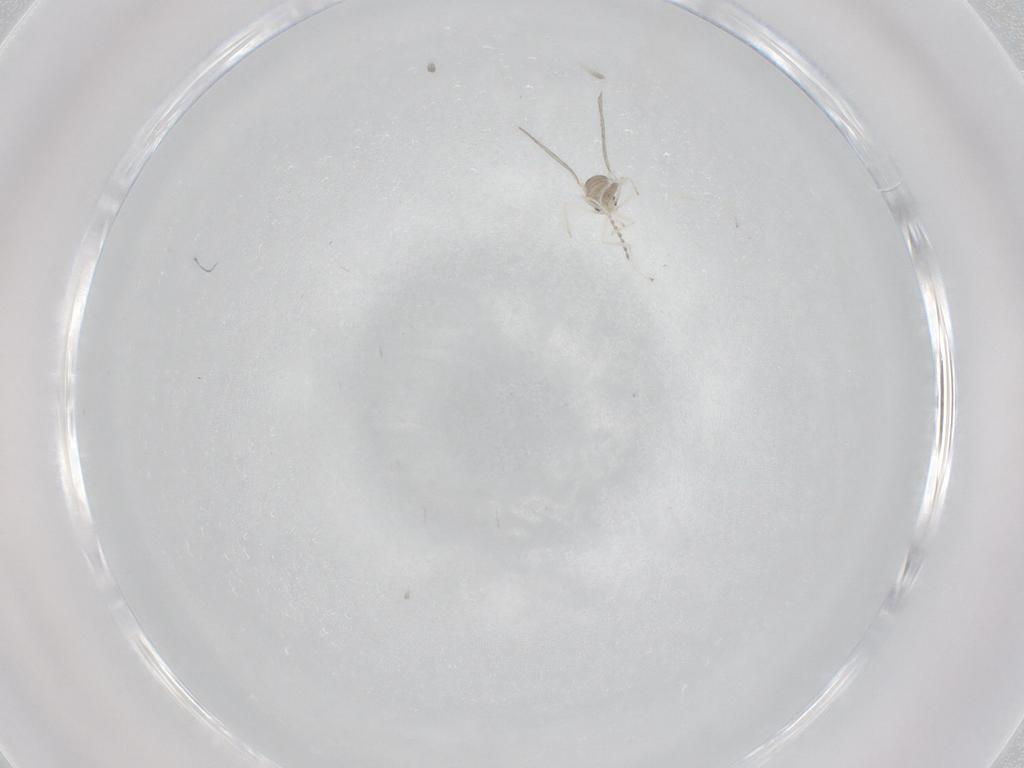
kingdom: Animalia
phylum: Arthropoda
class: Insecta
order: Diptera
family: Cecidomyiidae
